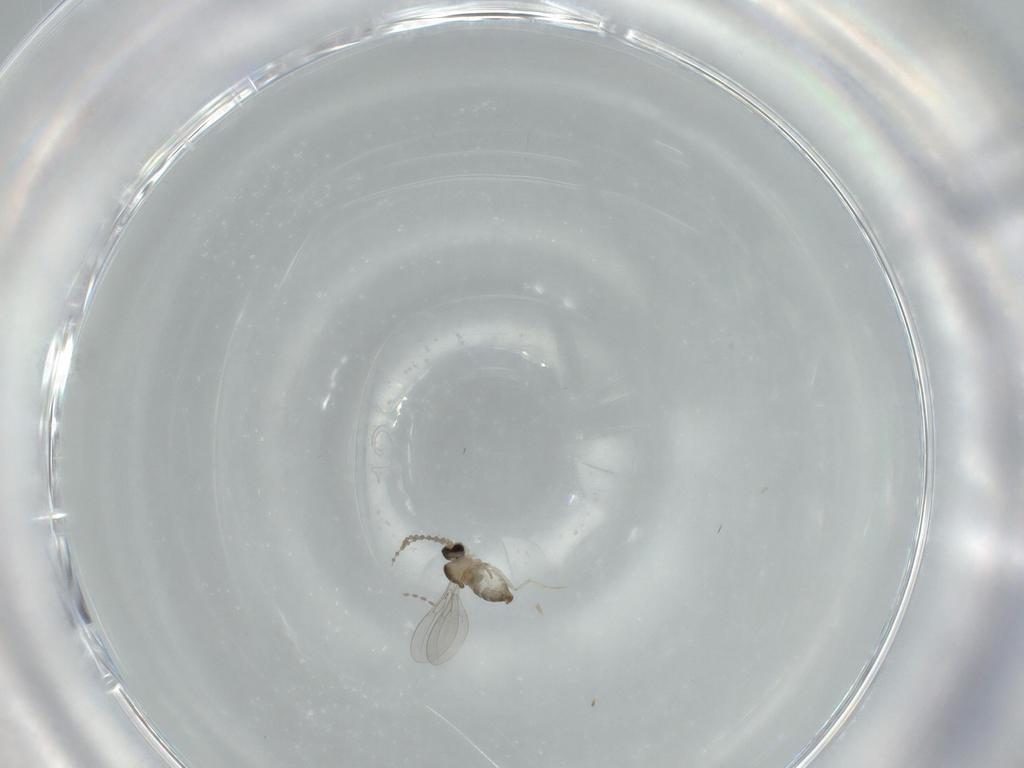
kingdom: Animalia
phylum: Arthropoda
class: Insecta
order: Diptera
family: Cecidomyiidae
